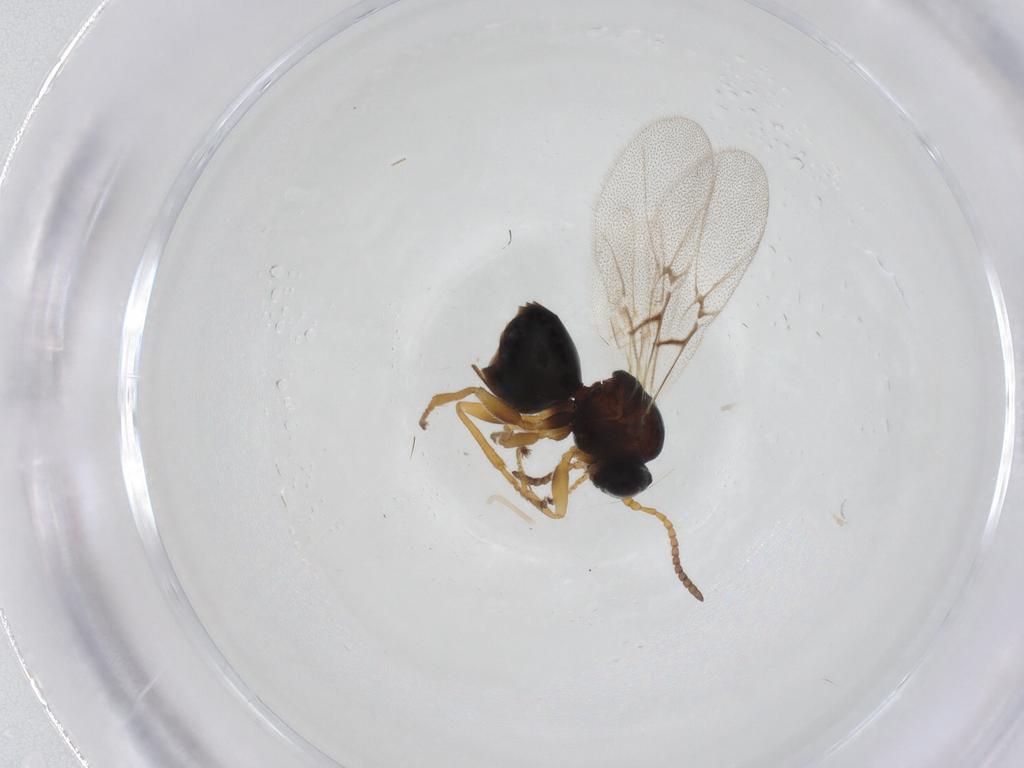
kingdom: Animalia
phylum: Arthropoda
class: Insecta
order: Hymenoptera
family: Cynipidae
